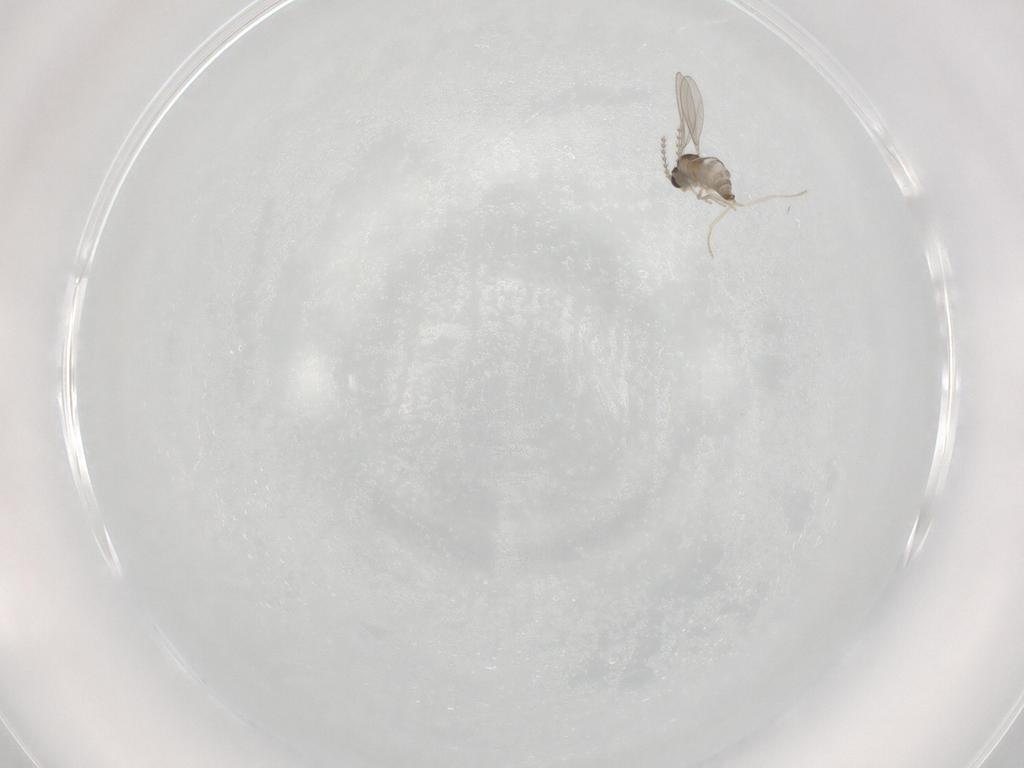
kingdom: Animalia
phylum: Arthropoda
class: Insecta
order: Diptera
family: Cecidomyiidae
